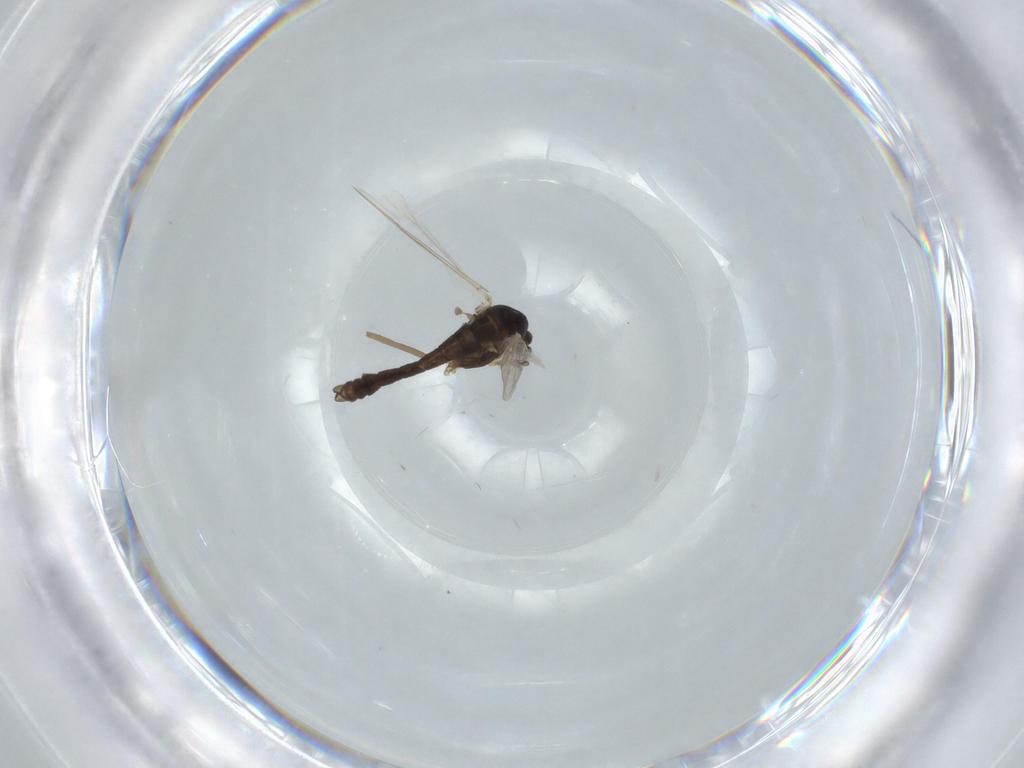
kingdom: Animalia
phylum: Arthropoda
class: Insecta
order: Diptera
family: Chironomidae
